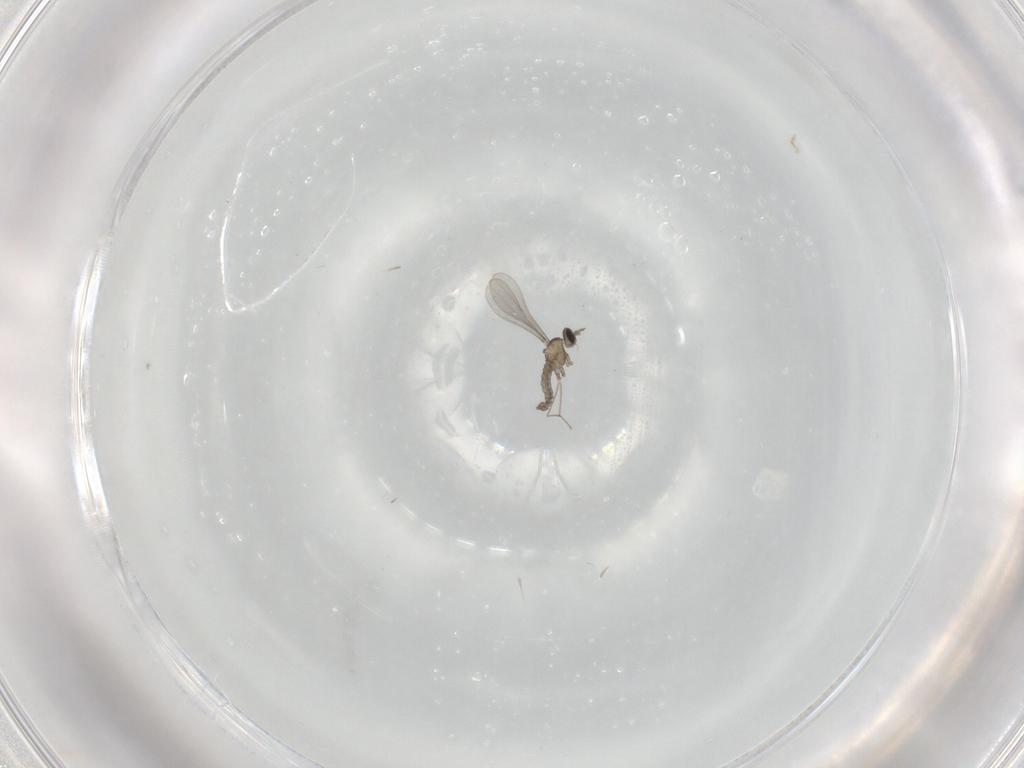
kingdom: Animalia
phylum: Arthropoda
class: Insecta
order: Diptera
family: Cecidomyiidae
